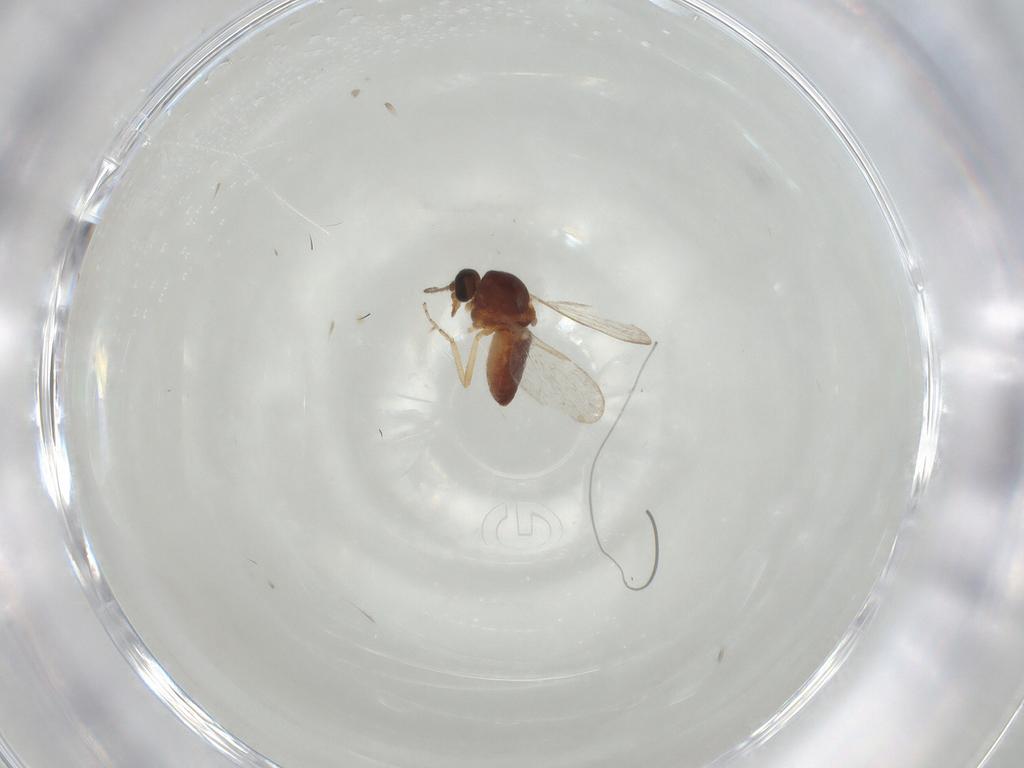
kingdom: Animalia
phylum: Arthropoda
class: Insecta
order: Diptera
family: Ceratopogonidae
